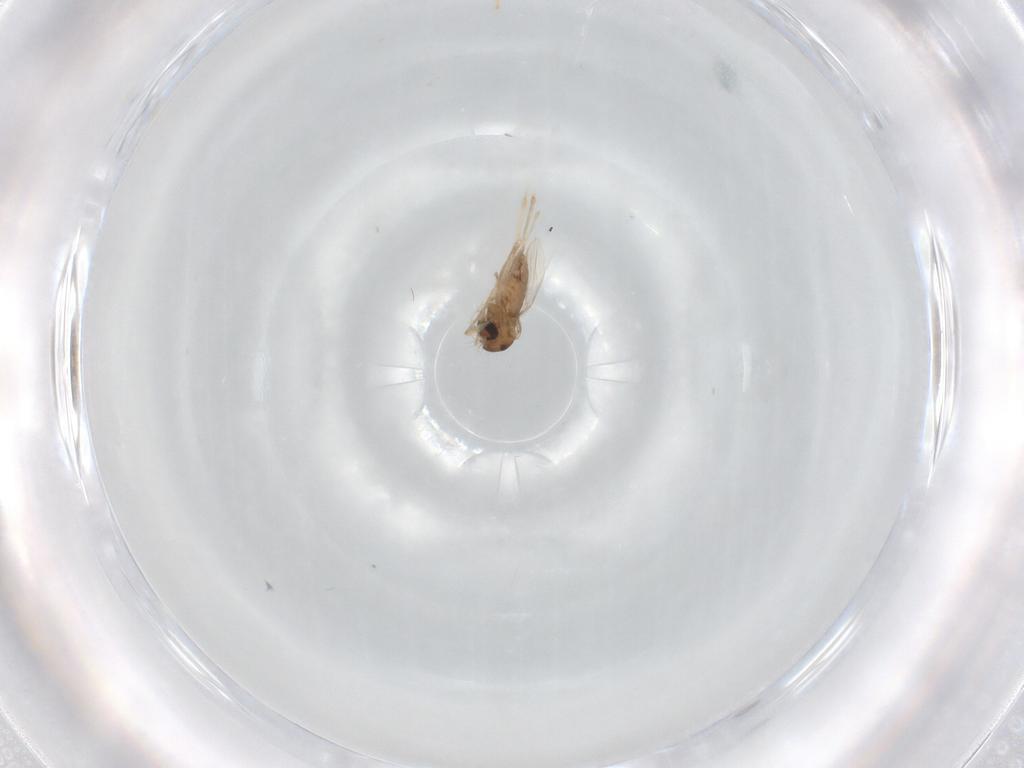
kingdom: Animalia
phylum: Arthropoda
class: Insecta
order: Diptera
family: Chironomidae
